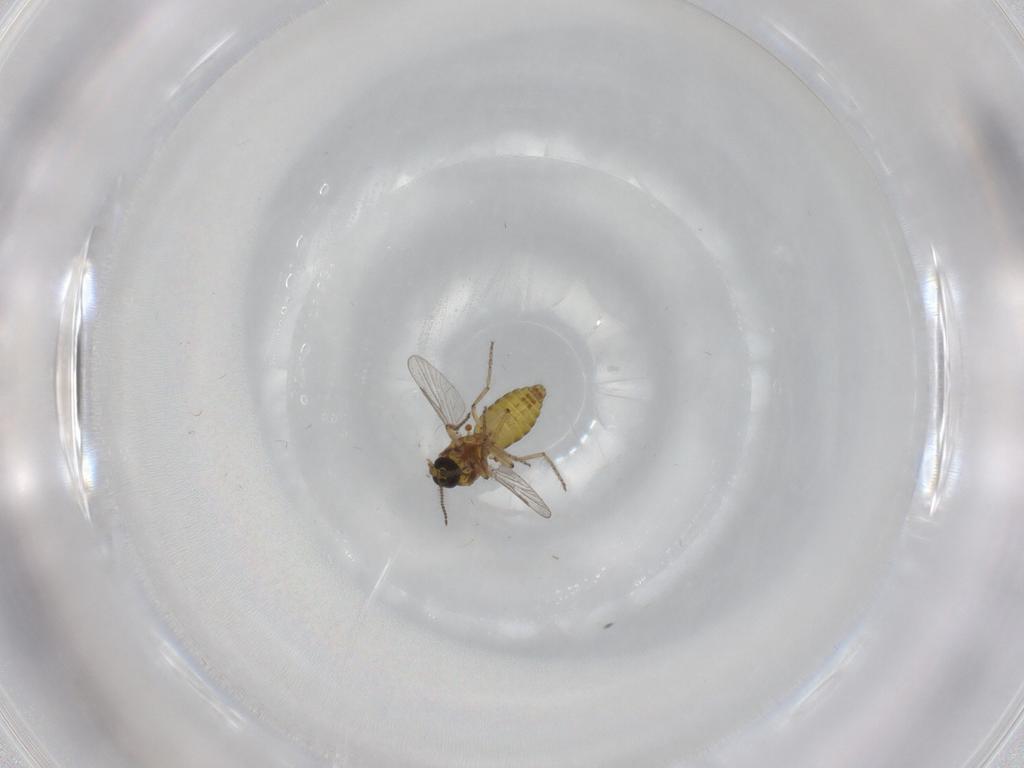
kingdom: Animalia
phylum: Arthropoda
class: Insecta
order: Diptera
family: Ceratopogonidae
